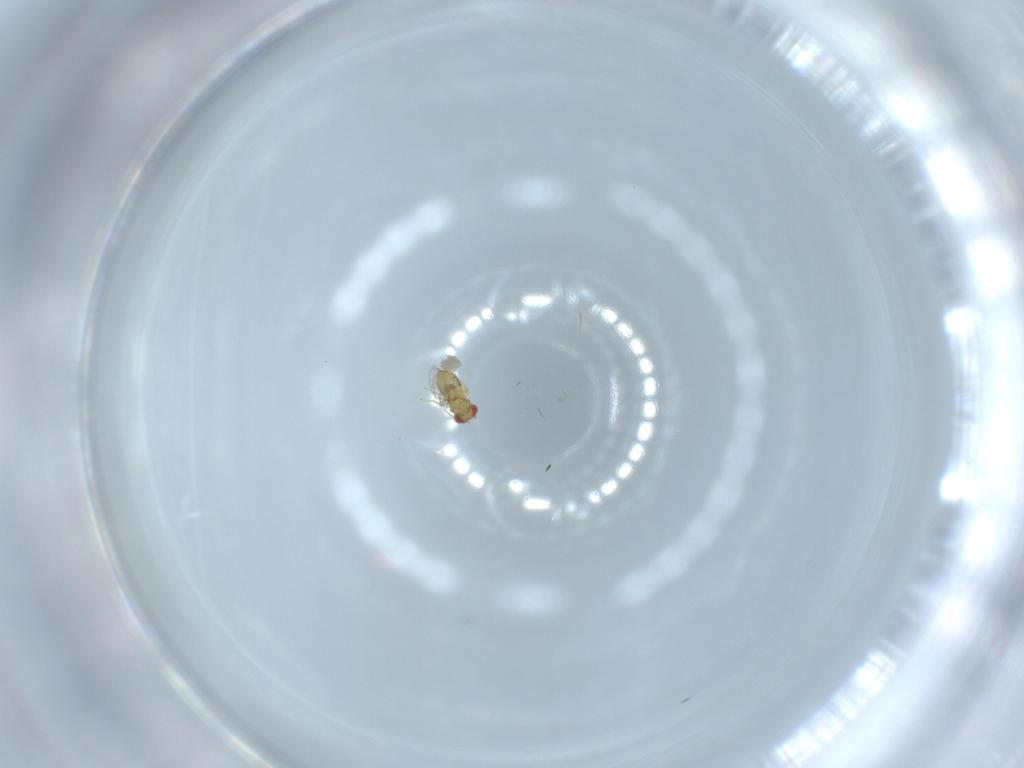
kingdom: Animalia
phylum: Arthropoda
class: Insecta
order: Hymenoptera
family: Trichogrammatidae
